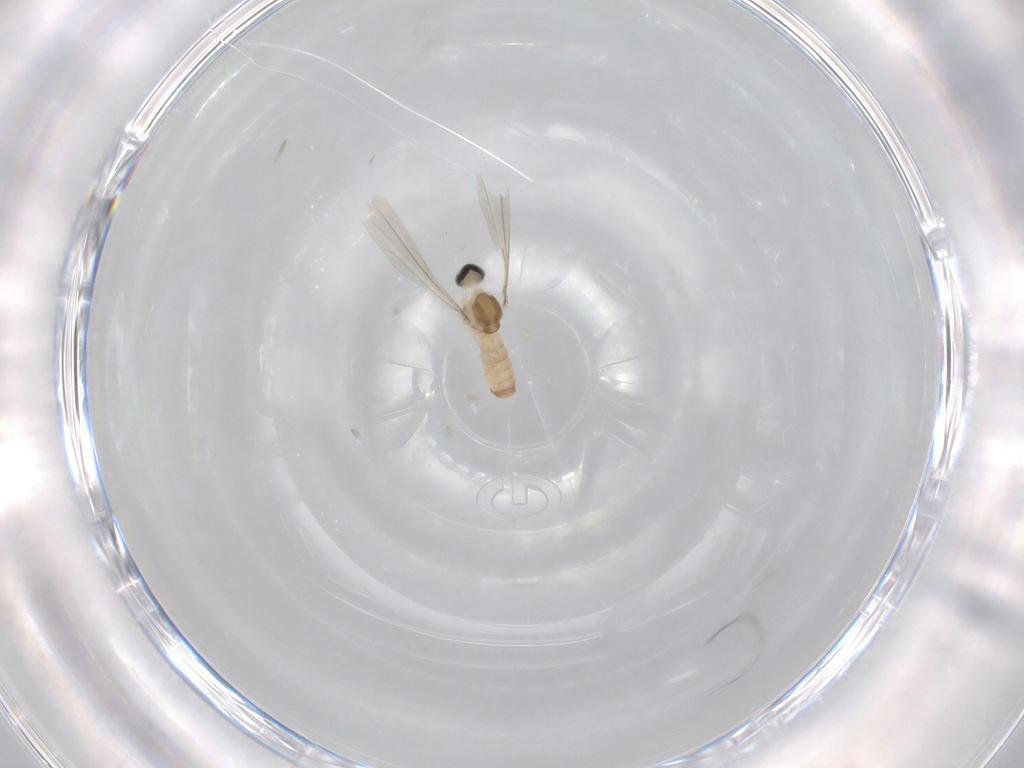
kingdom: Animalia
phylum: Arthropoda
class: Insecta
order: Diptera
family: Cecidomyiidae
